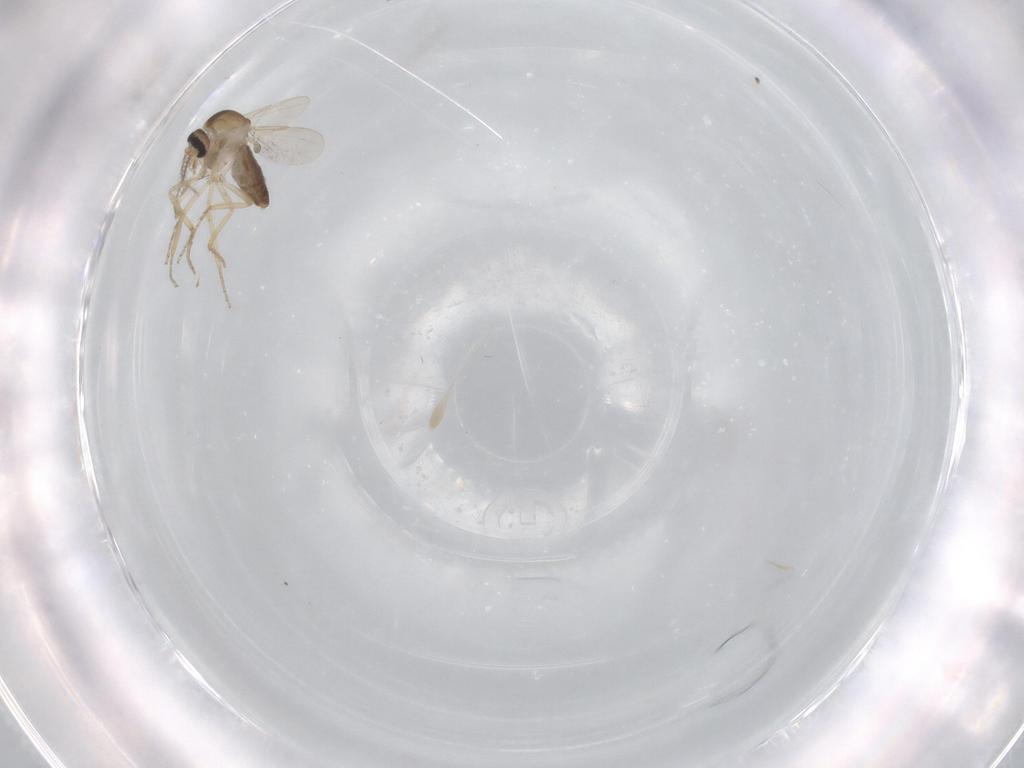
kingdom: Animalia
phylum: Arthropoda
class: Insecta
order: Diptera
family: Ceratopogonidae
